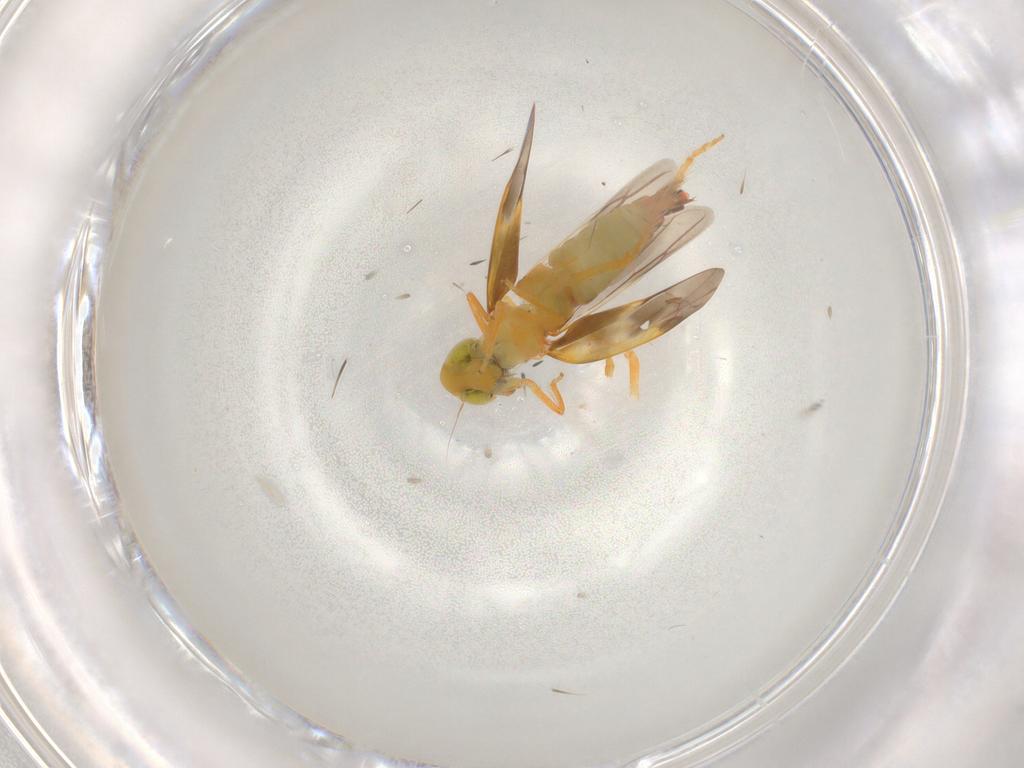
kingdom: Animalia
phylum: Arthropoda
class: Insecta
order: Hemiptera
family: Cicadellidae
